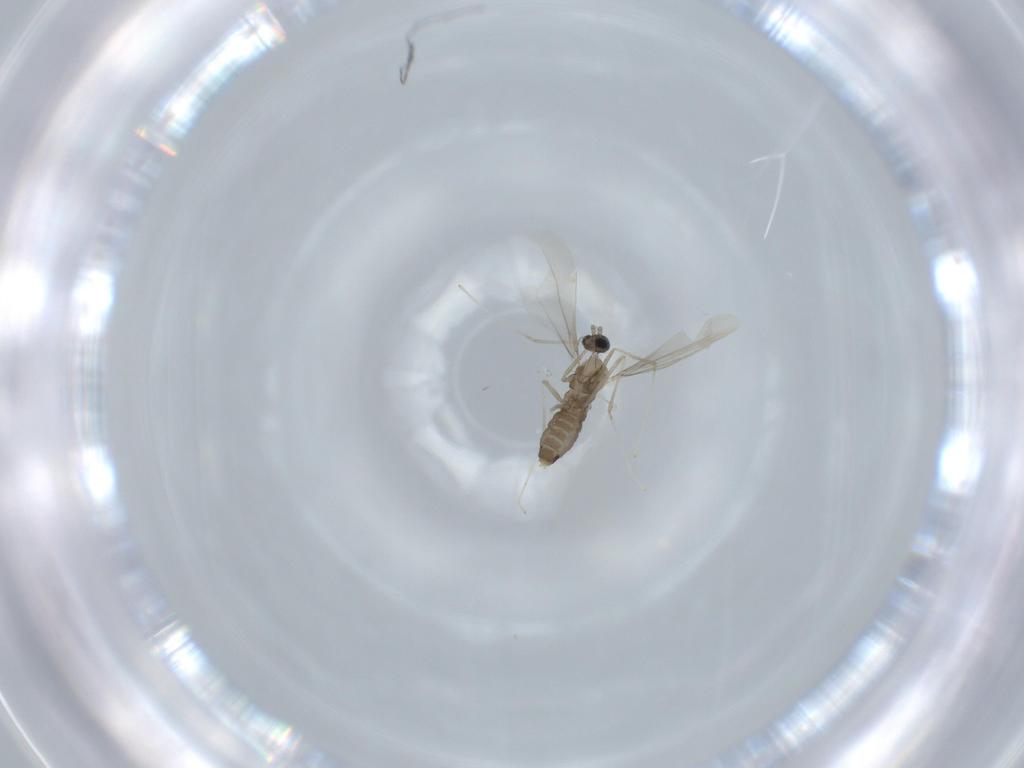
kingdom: Animalia
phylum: Arthropoda
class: Insecta
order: Diptera
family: Cecidomyiidae
